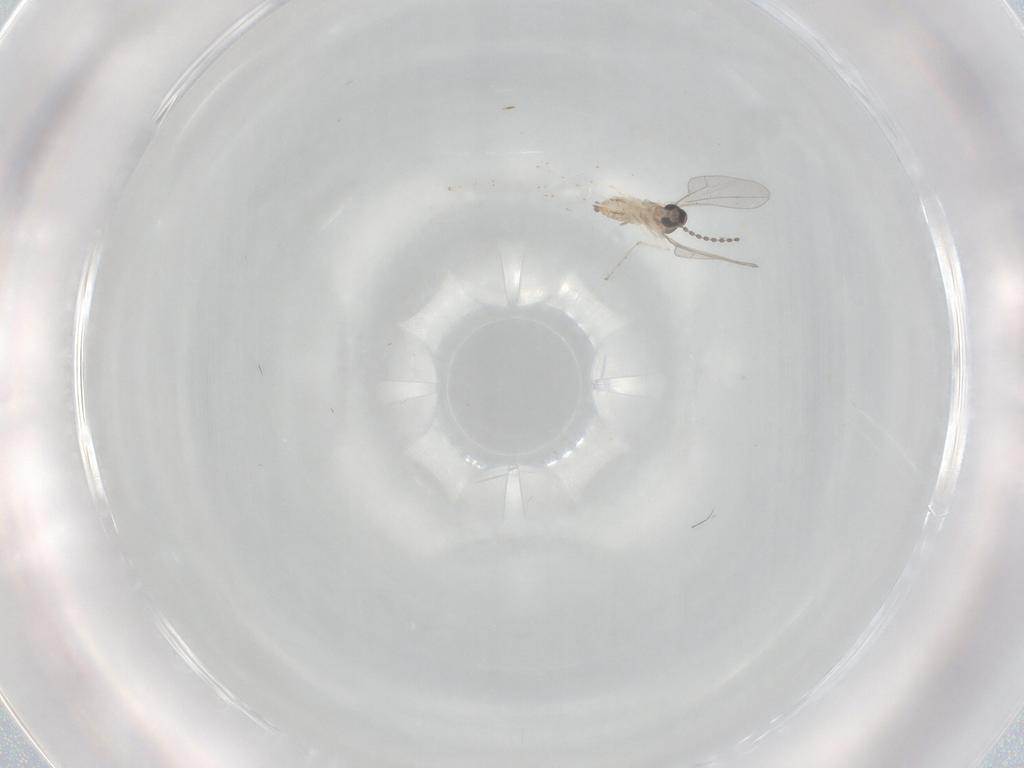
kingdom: Animalia
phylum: Arthropoda
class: Insecta
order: Diptera
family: Cecidomyiidae
